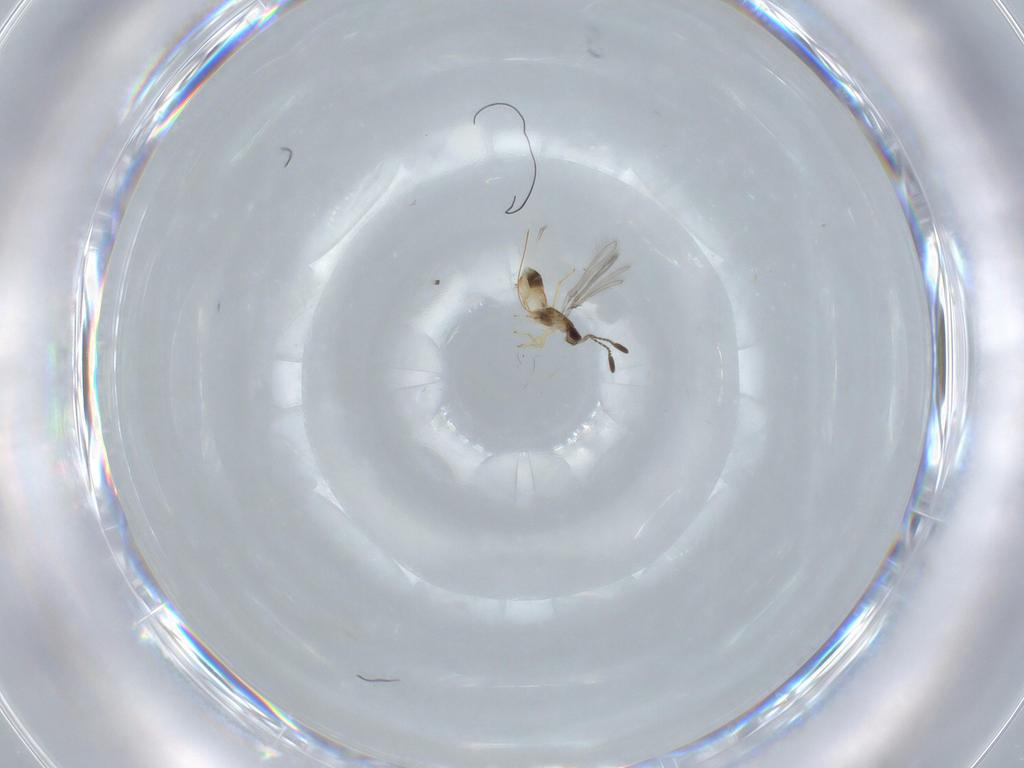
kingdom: Animalia
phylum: Arthropoda
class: Insecta
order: Hymenoptera
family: Mymaridae
